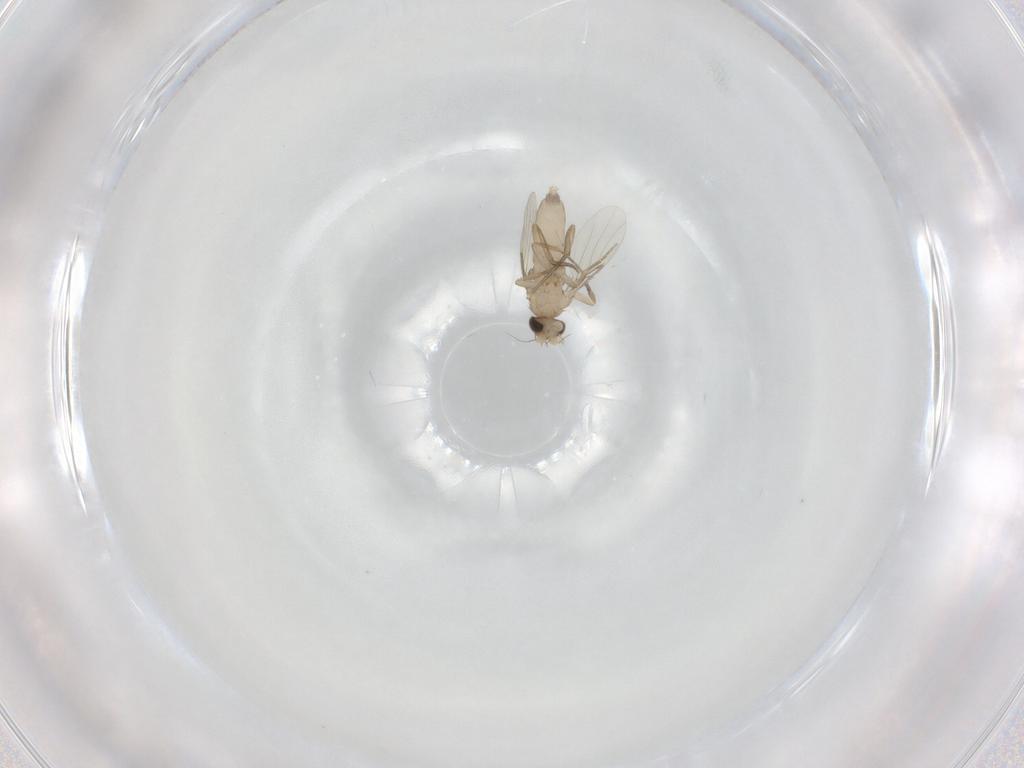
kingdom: Animalia
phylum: Arthropoda
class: Insecta
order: Diptera
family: Phoridae
